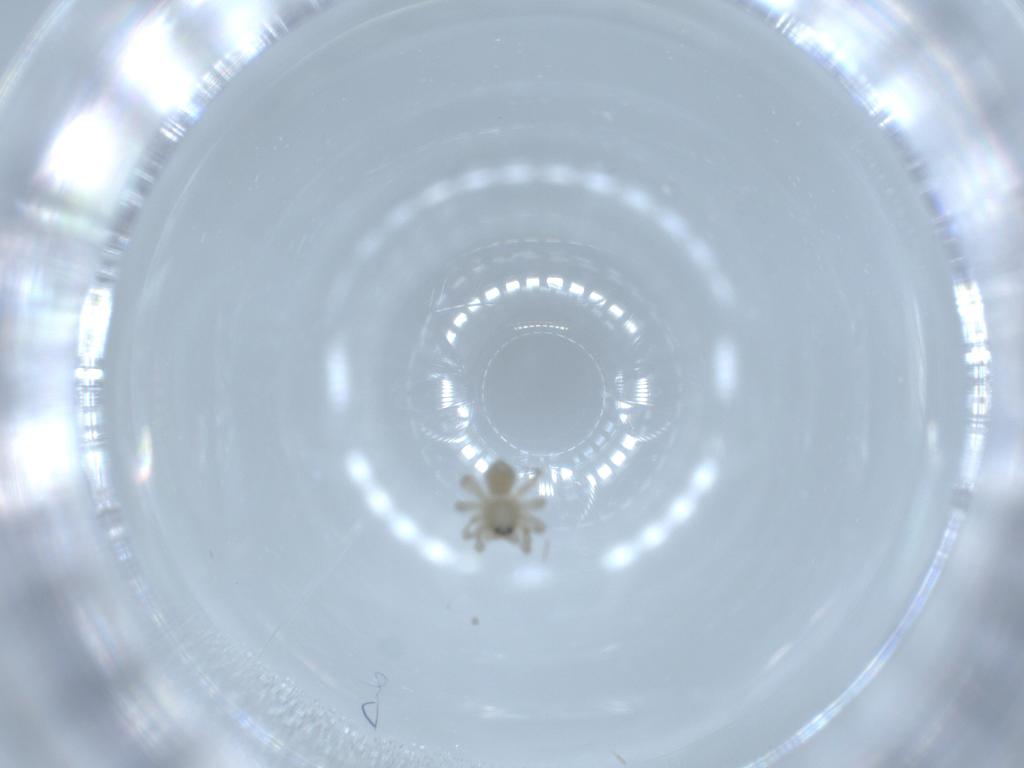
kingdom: Animalia
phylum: Arthropoda
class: Arachnida
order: Araneae
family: Linyphiidae
